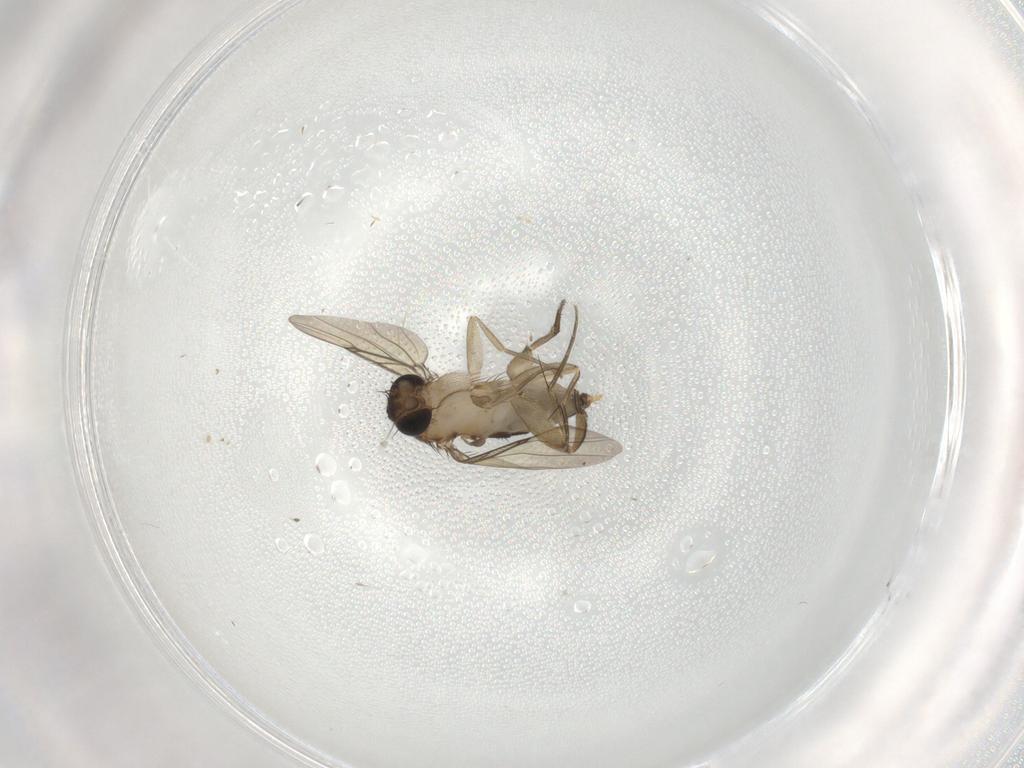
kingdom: Animalia
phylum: Arthropoda
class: Insecta
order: Diptera
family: Phoridae
